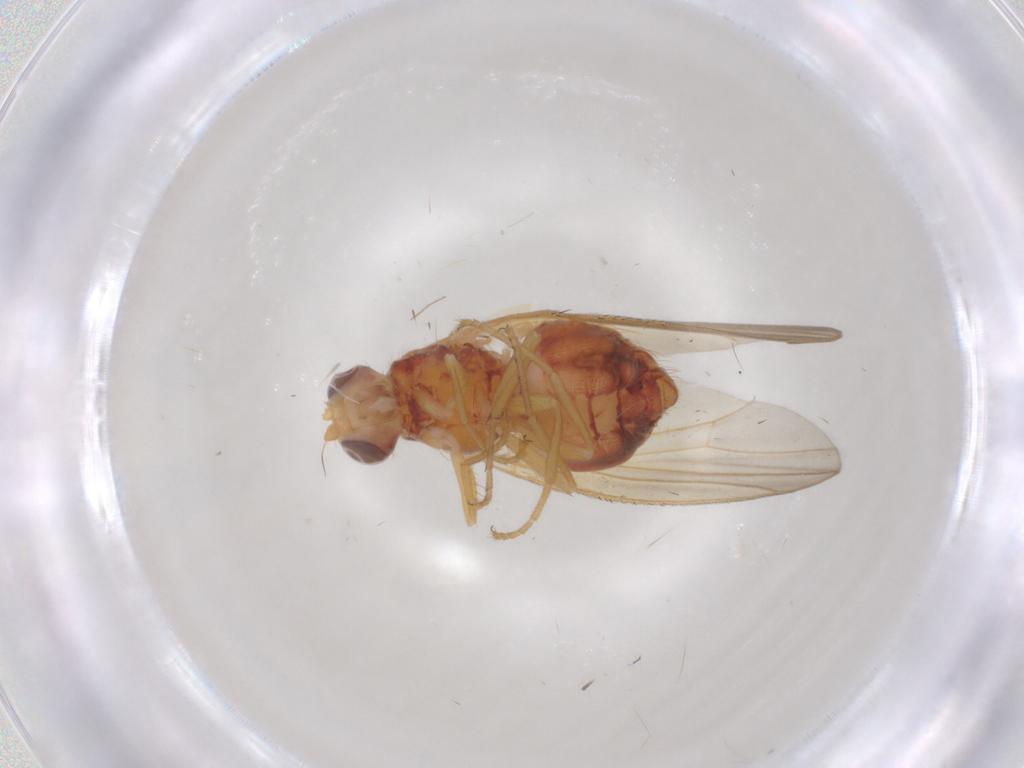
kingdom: Animalia
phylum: Arthropoda
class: Insecta
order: Diptera
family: Heleomyzidae
